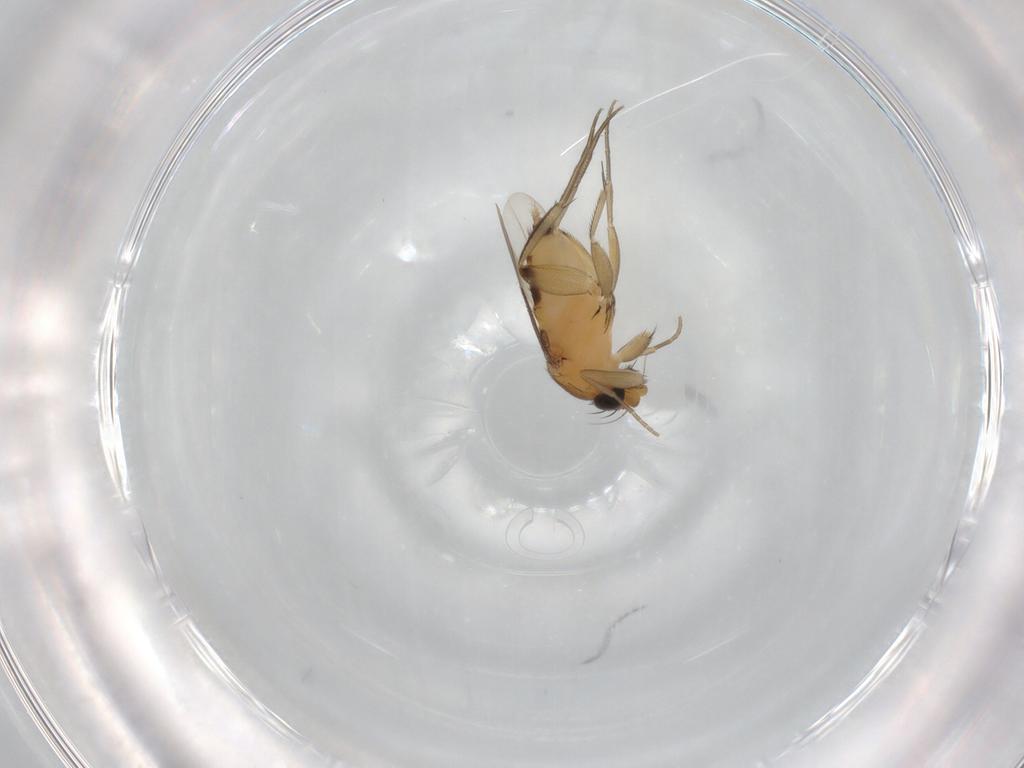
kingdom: Animalia
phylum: Arthropoda
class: Insecta
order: Diptera
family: Phoridae
